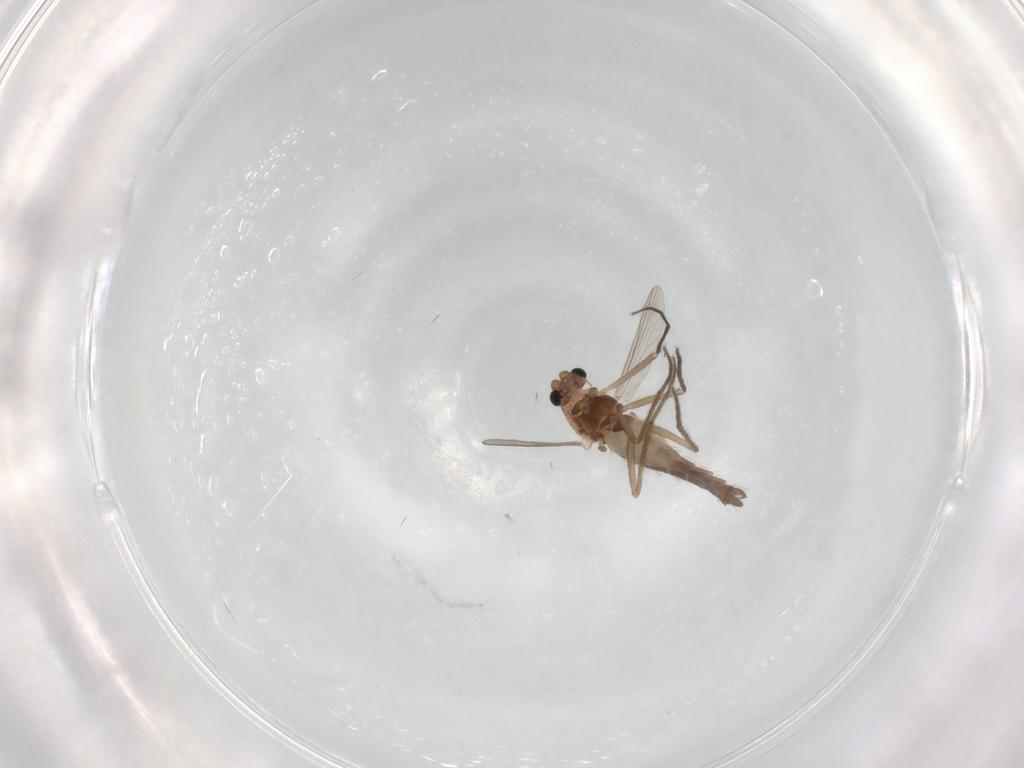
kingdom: Animalia
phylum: Arthropoda
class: Insecta
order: Diptera
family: Chironomidae
